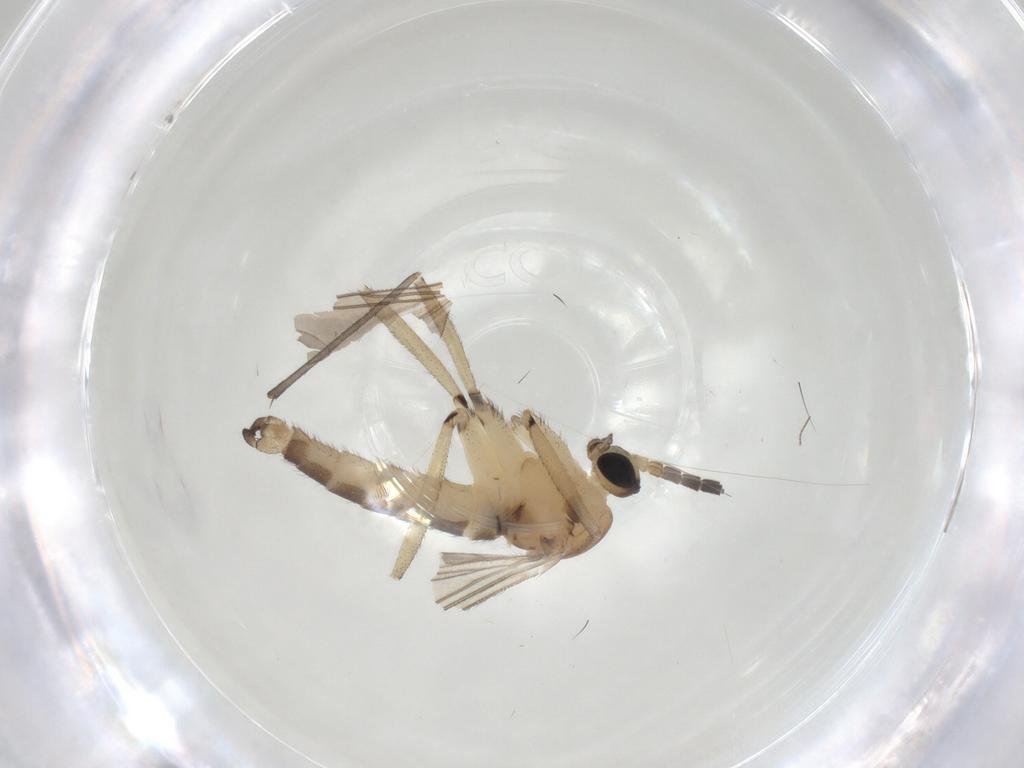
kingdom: Animalia
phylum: Arthropoda
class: Insecta
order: Diptera
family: Sciaridae
